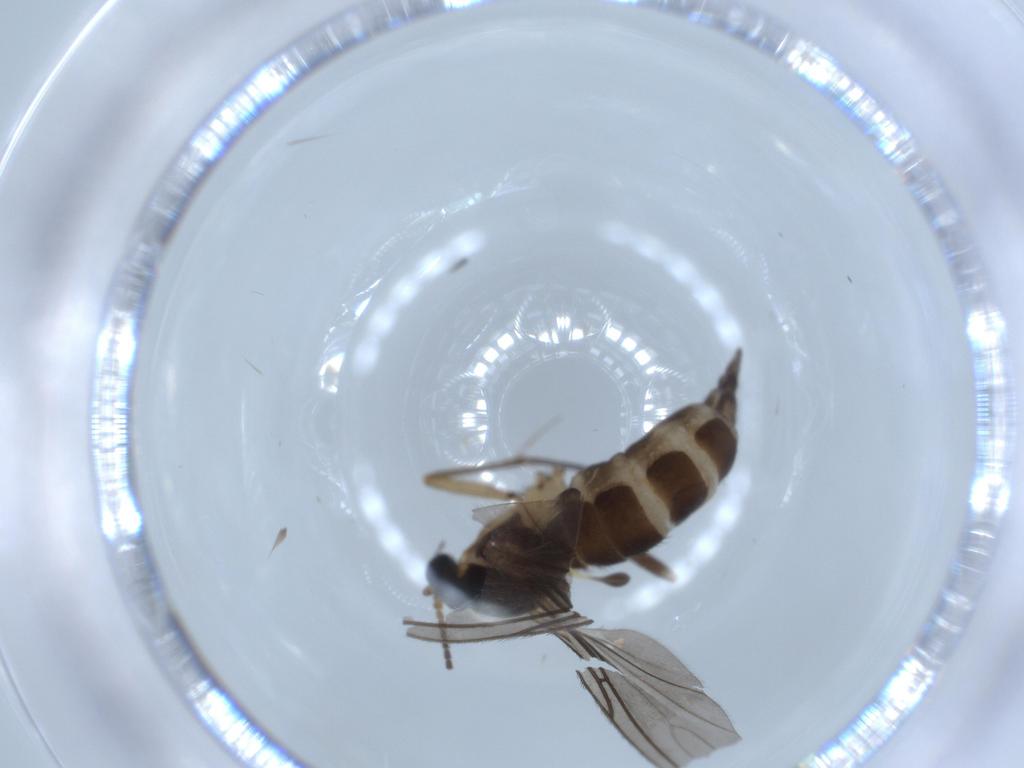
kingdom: Animalia
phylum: Arthropoda
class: Insecta
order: Diptera
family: Sciaridae
